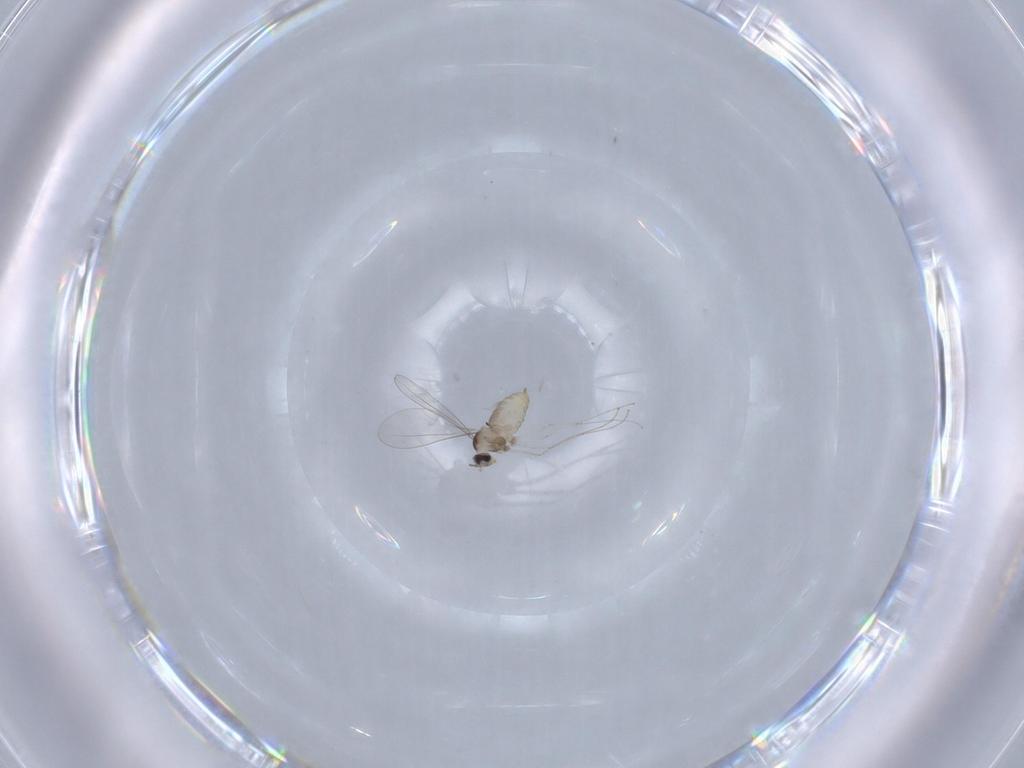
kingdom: Animalia
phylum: Arthropoda
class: Insecta
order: Diptera
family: Cecidomyiidae
